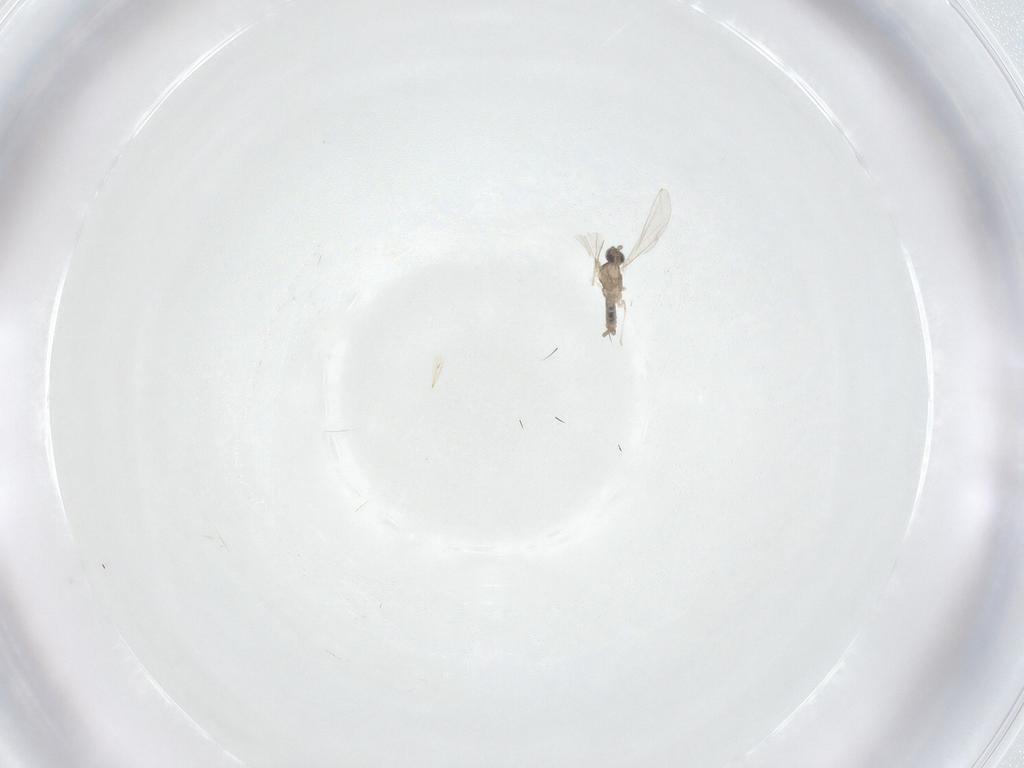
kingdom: Animalia
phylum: Arthropoda
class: Insecta
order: Diptera
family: Cecidomyiidae
